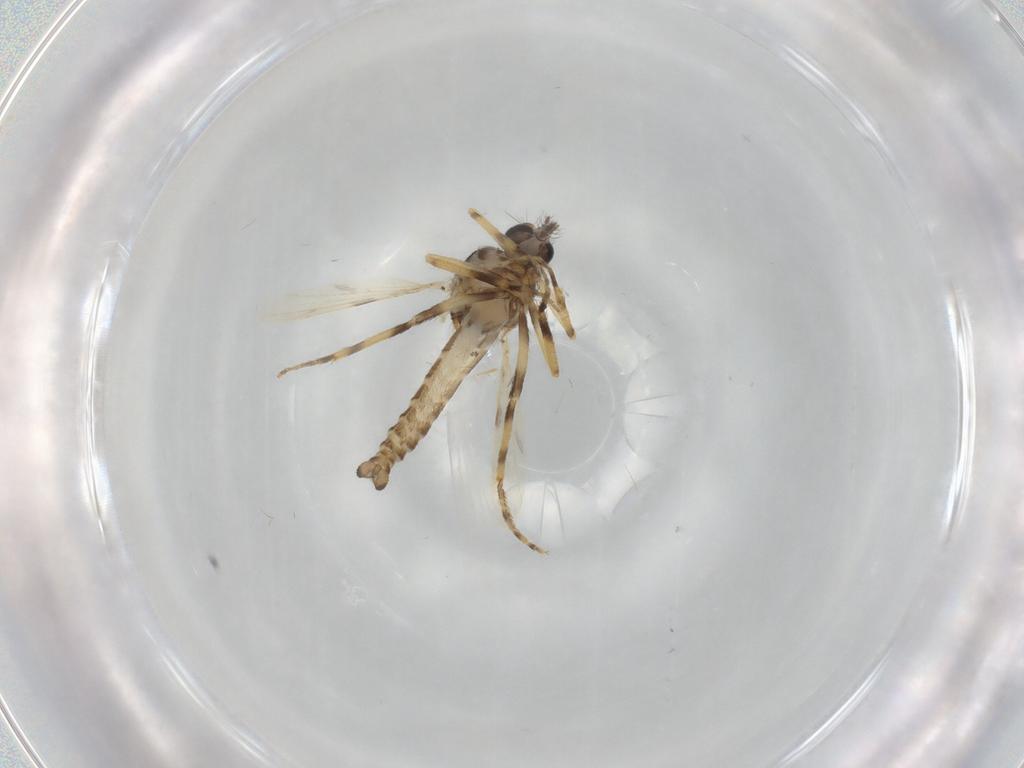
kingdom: Animalia
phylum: Arthropoda
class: Insecta
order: Diptera
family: Ceratopogonidae
